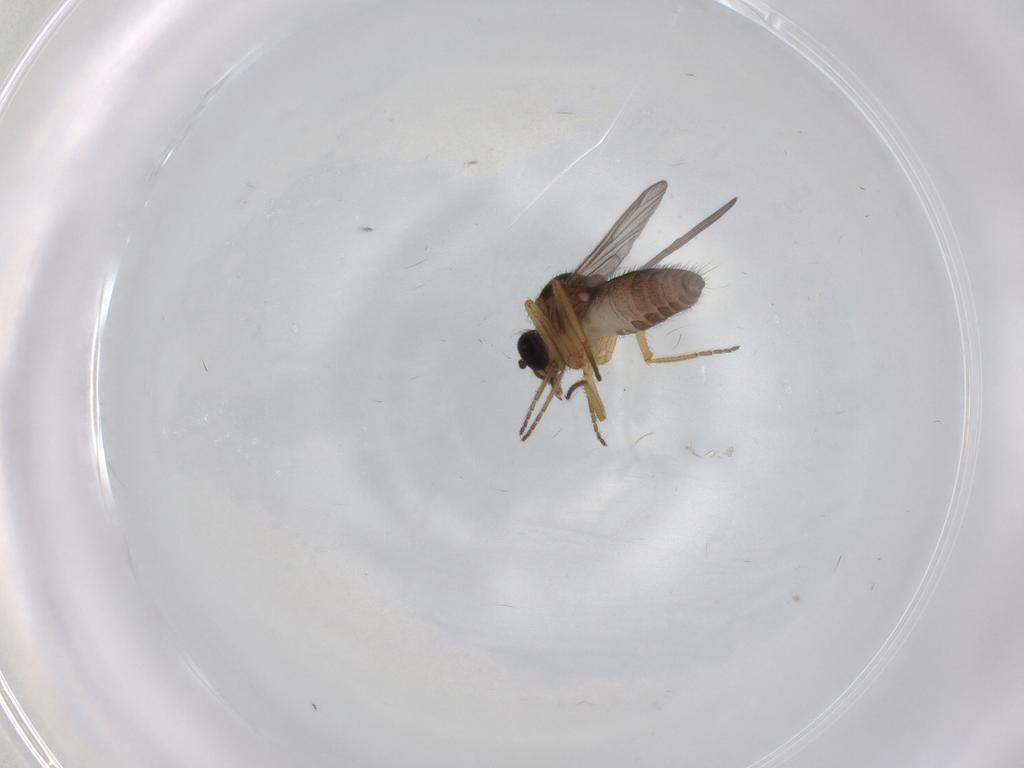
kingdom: Animalia
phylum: Arthropoda
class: Insecta
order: Diptera
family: Ceratopogonidae
